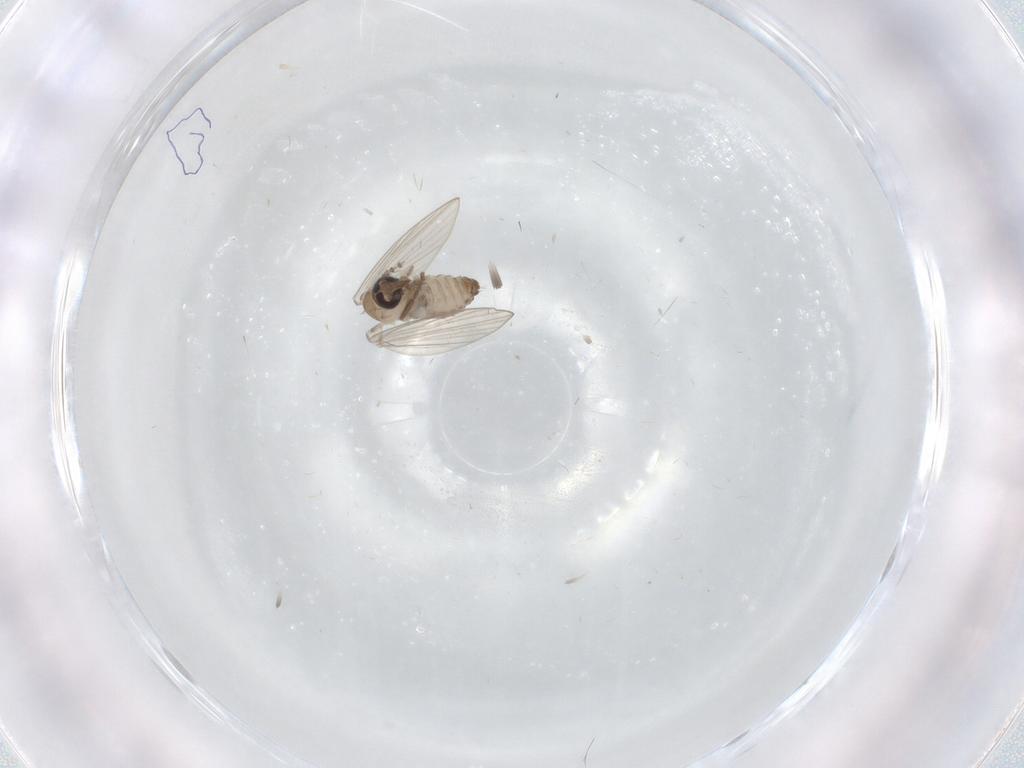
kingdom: Animalia
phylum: Arthropoda
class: Insecta
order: Diptera
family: Psychodidae
